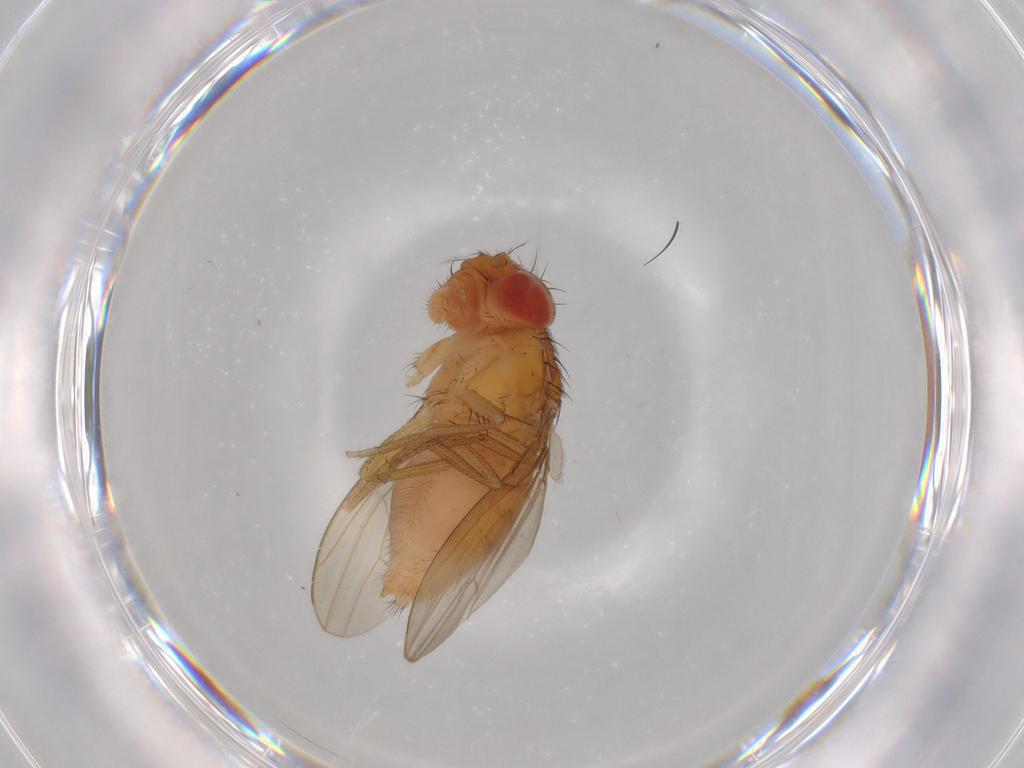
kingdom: Animalia
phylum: Arthropoda
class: Insecta
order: Diptera
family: Drosophilidae
